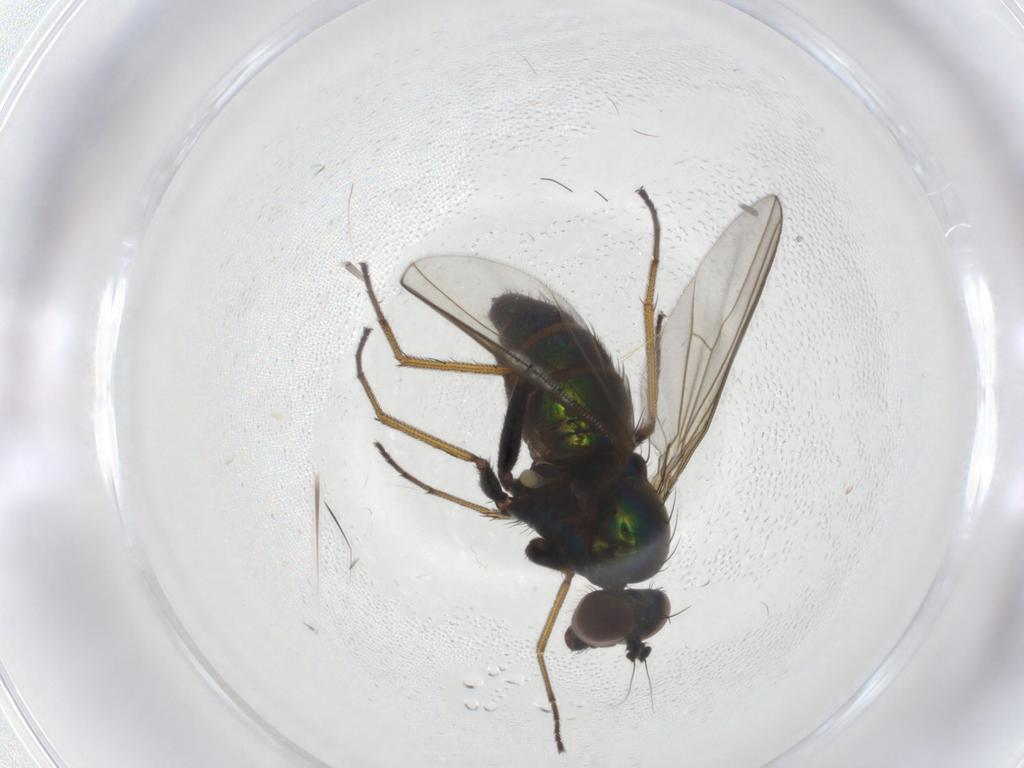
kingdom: Animalia
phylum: Arthropoda
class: Insecta
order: Diptera
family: Dolichopodidae
